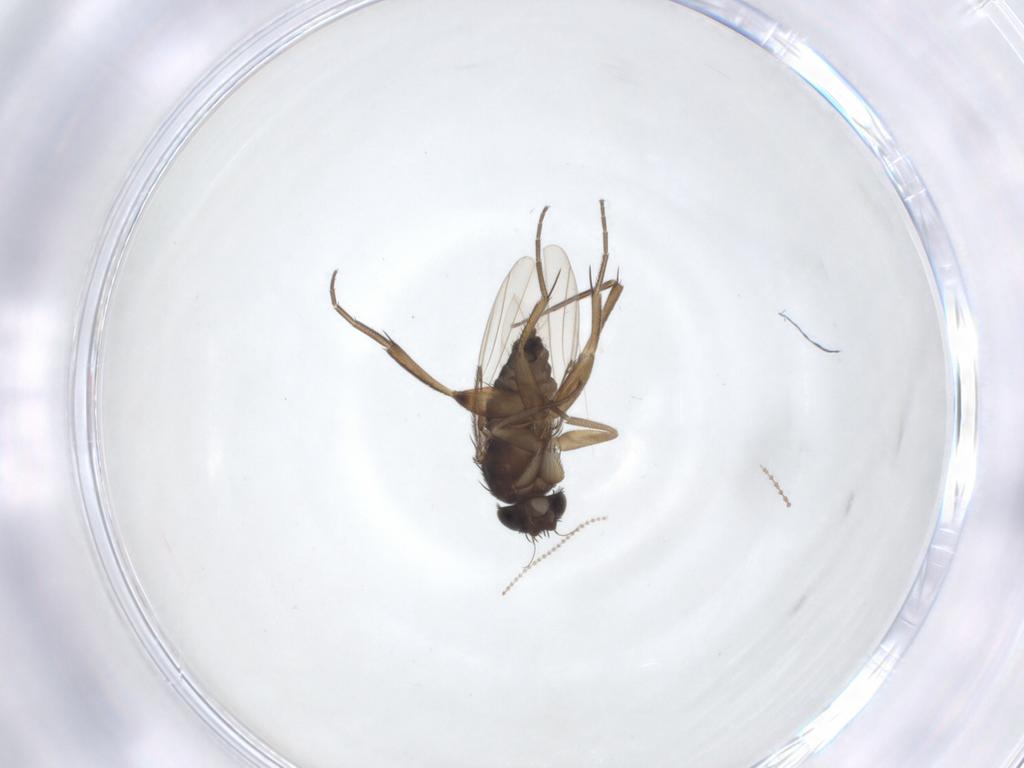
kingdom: Animalia
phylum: Arthropoda
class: Insecta
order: Diptera
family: Phoridae
